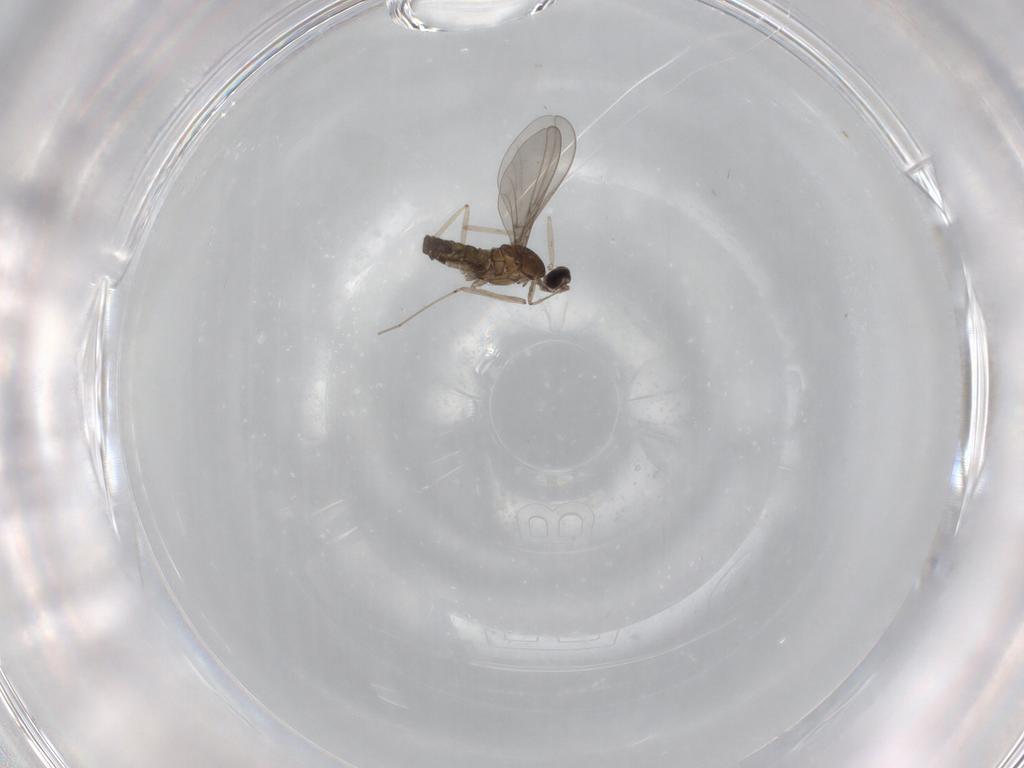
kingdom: Animalia
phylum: Arthropoda
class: Insecta
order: Diptera
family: Cecidomyiidae
